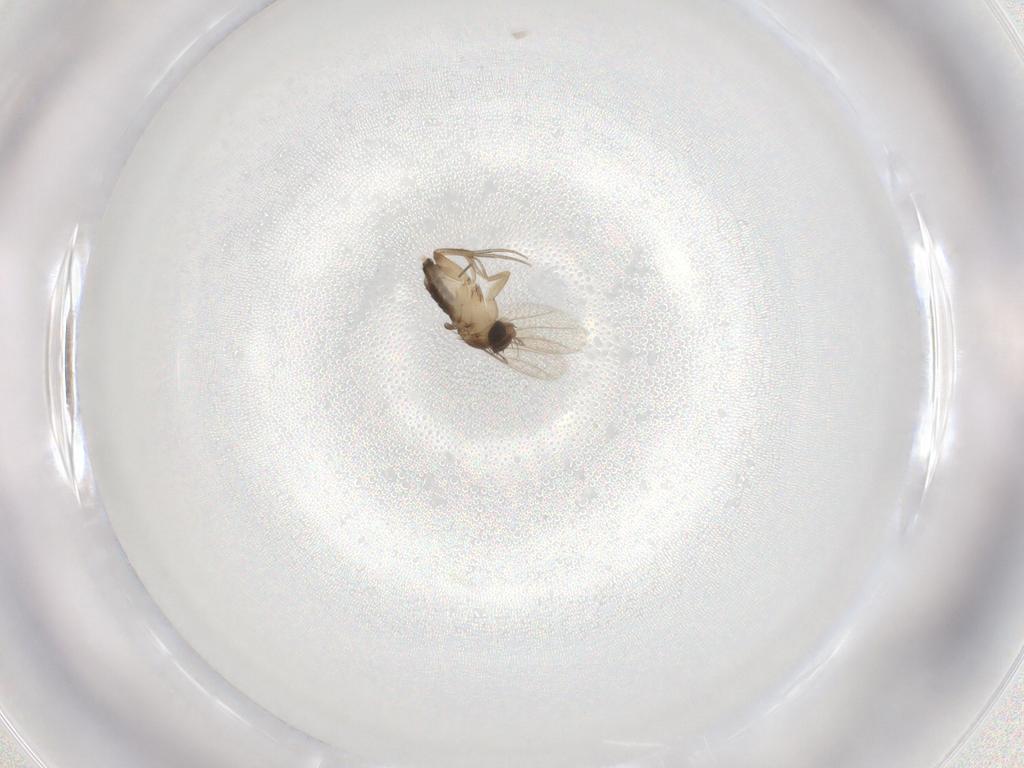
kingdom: Animalia
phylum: Arthropoda
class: Insecta
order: Diptera
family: Phoridae
